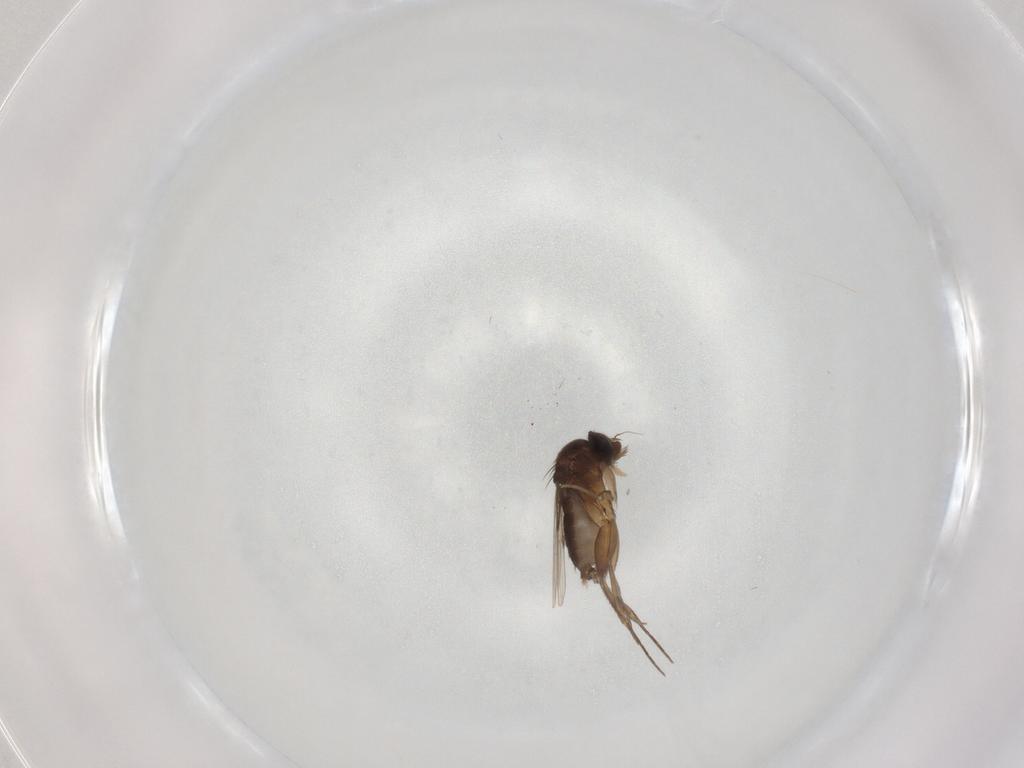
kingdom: Animalia
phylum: Arthropoda
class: Insecta
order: Diptera
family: Phoridae
